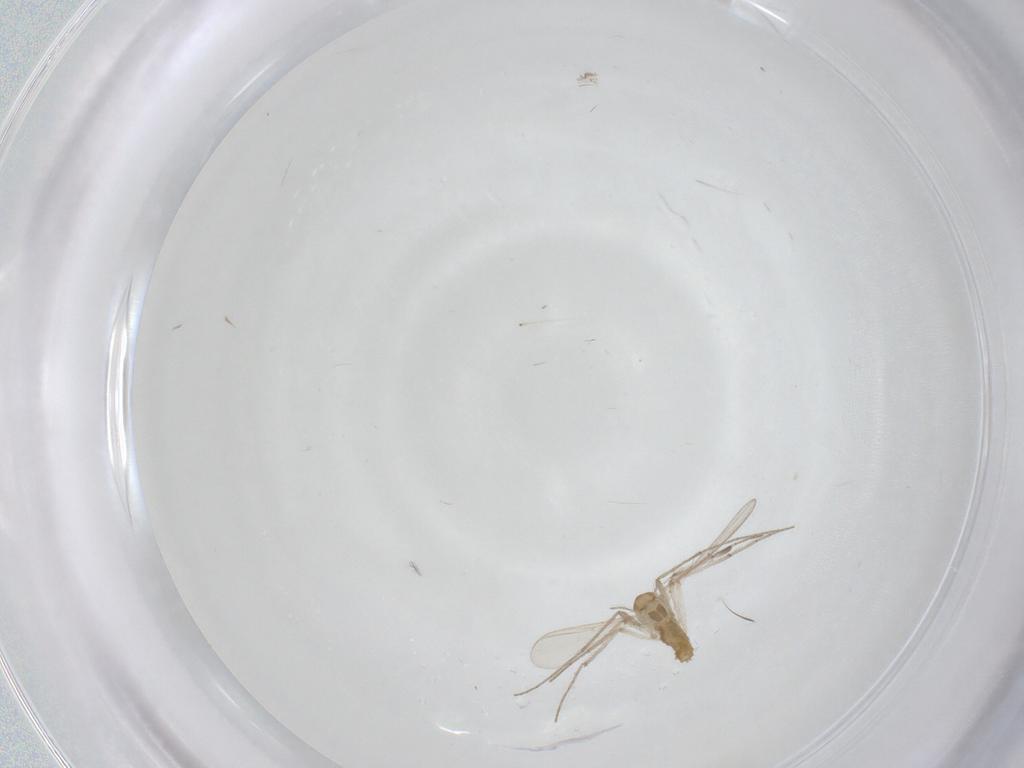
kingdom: Animalia
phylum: Arthropoda
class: Insecta
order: Diptera
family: Chironomidae
